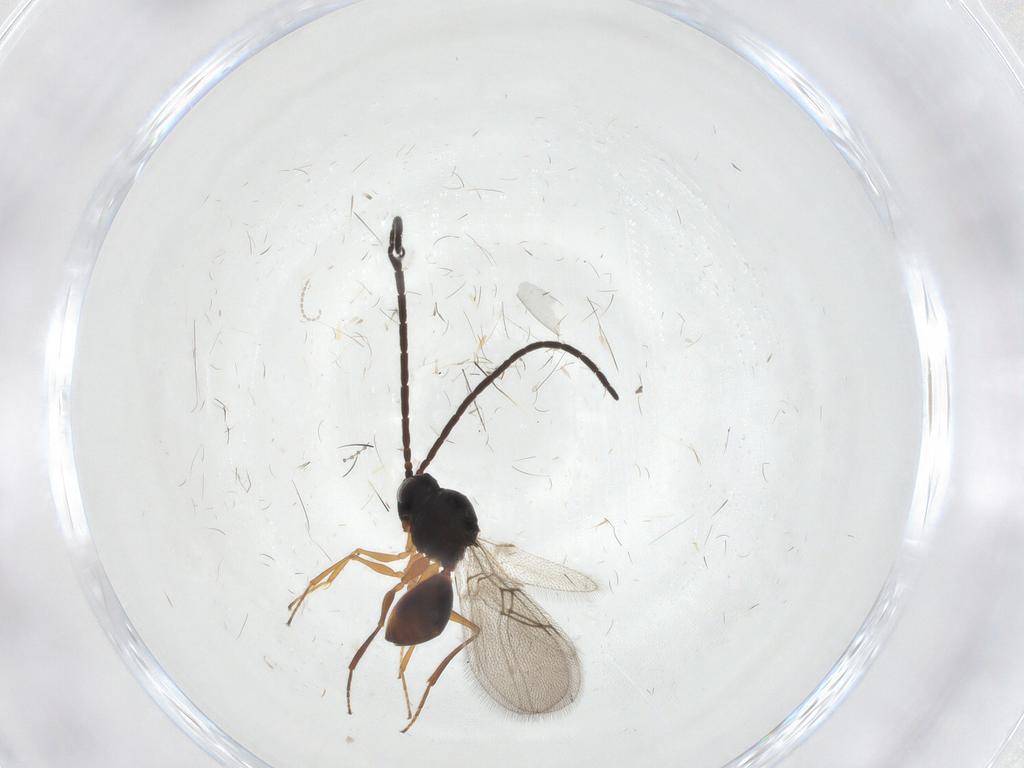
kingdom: Animalia
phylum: Arthropoda
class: Insecta
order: Hymenoptera
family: Figitidae
